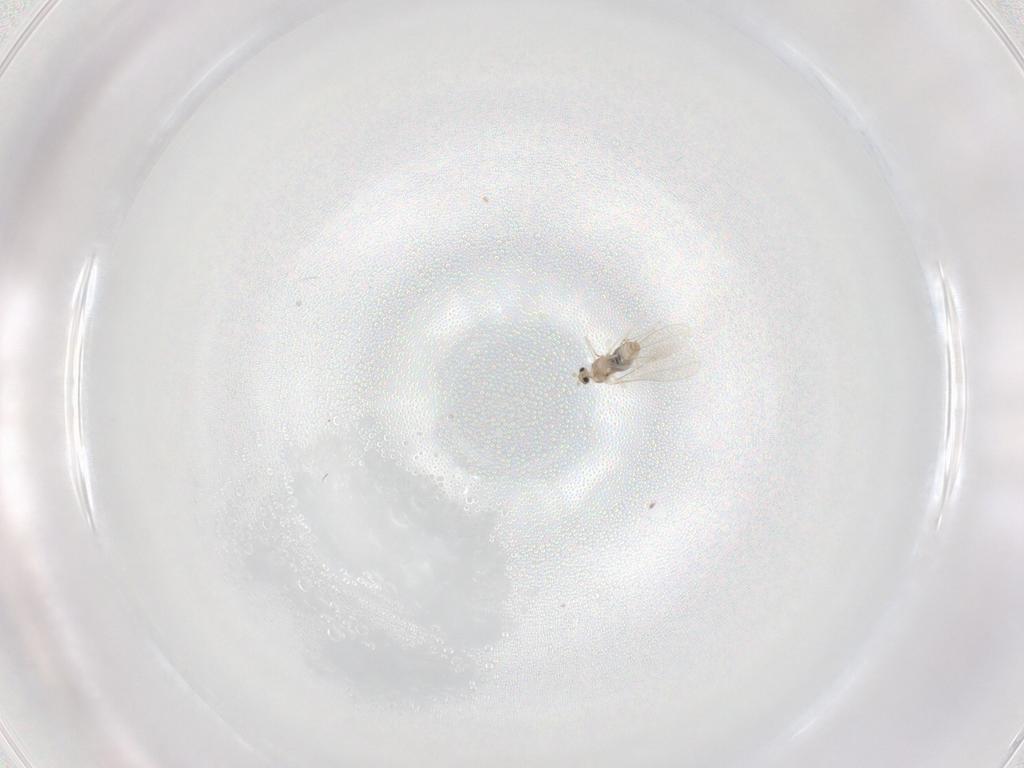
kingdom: Animalia
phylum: Arthropoda
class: Insecta
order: Diptera
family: Cecidomyiidae
